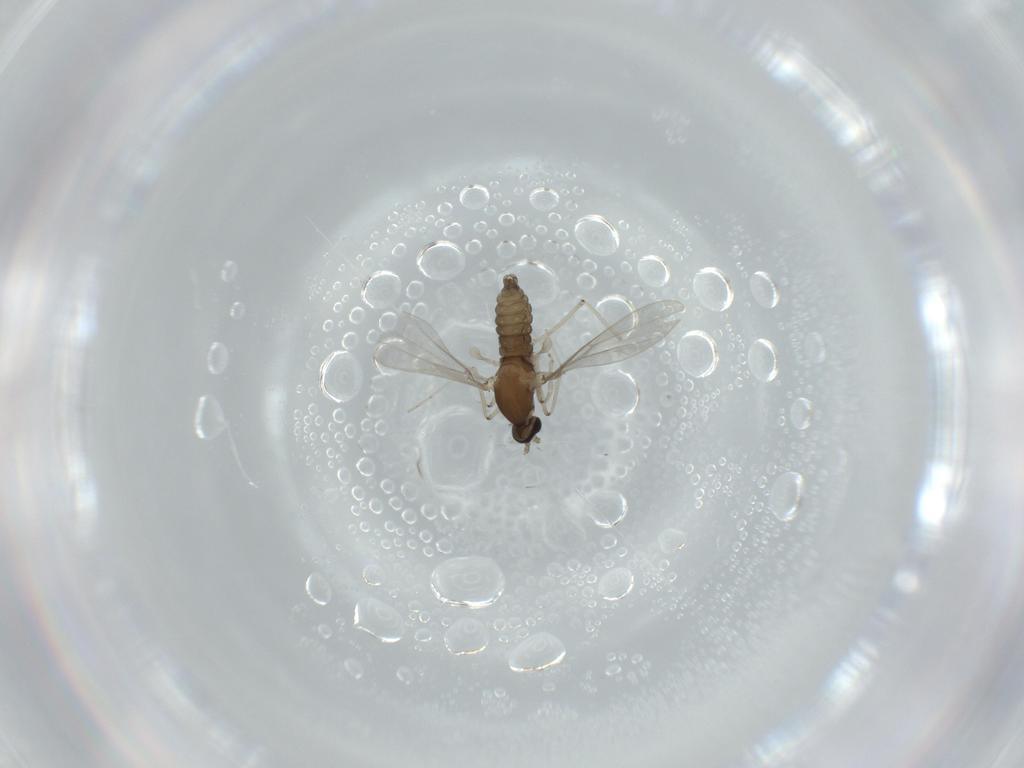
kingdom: Animalia
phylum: Arthropoda
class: Insecta
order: Diptera
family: Cecidomyiidae
